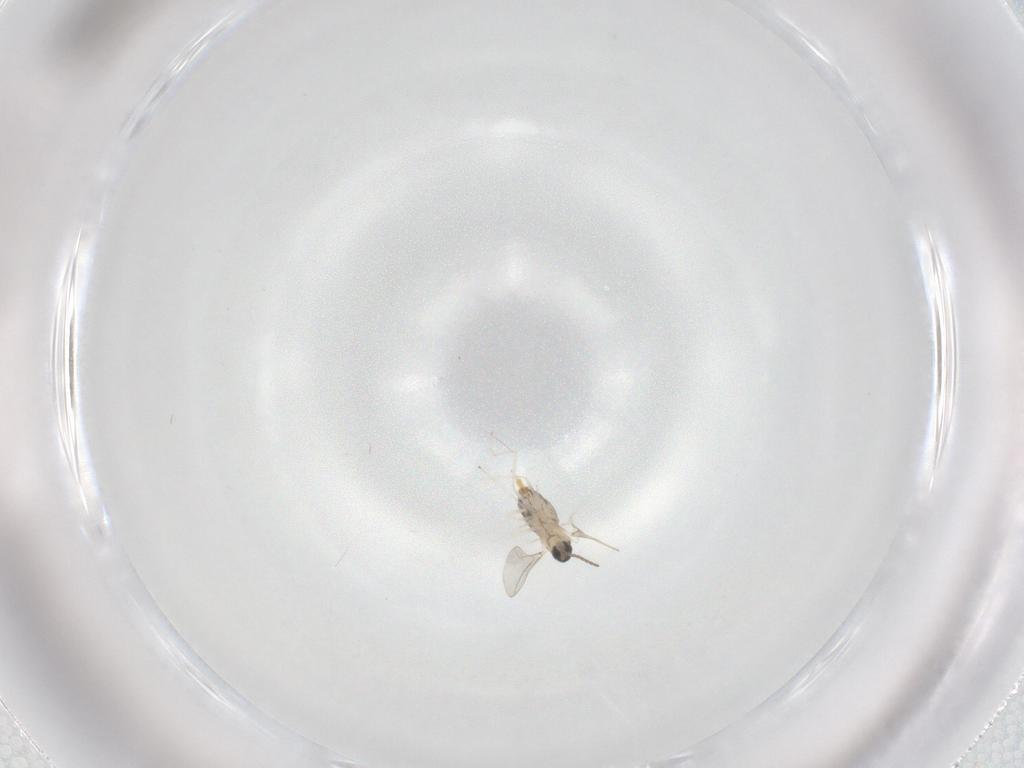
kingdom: Animalia
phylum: Arthropoda
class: Insecta
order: Diptera
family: Cecidomyiidae
